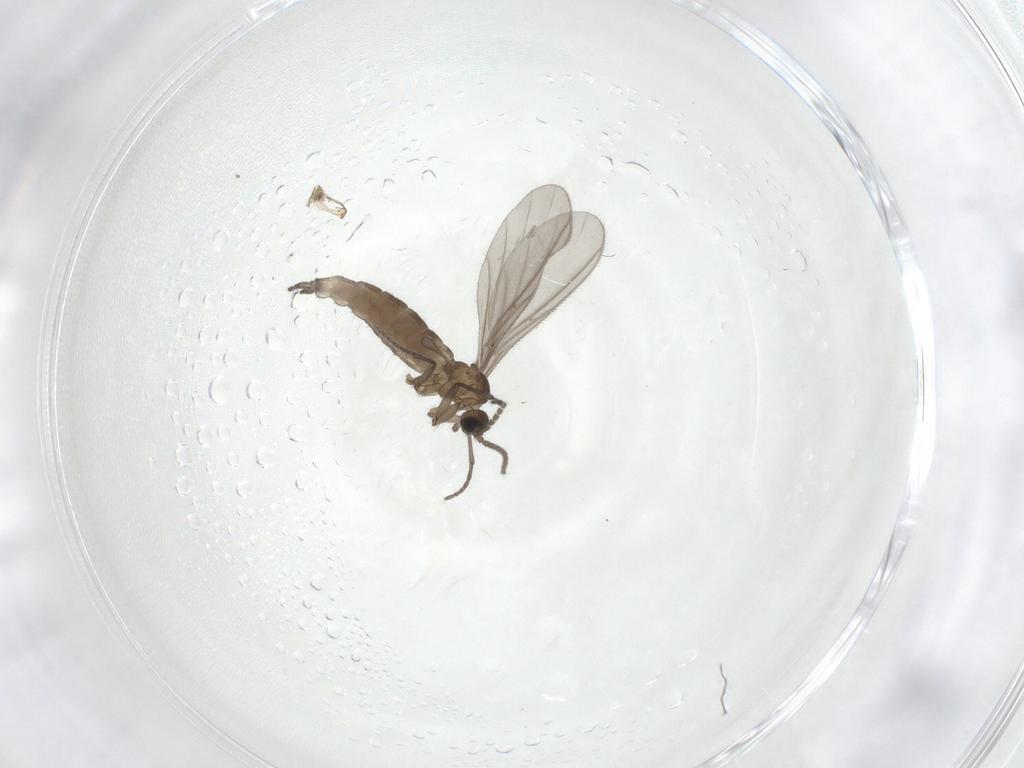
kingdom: Animalia
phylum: Arthropoda
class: Insecta
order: Diptera
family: Sciaridae
